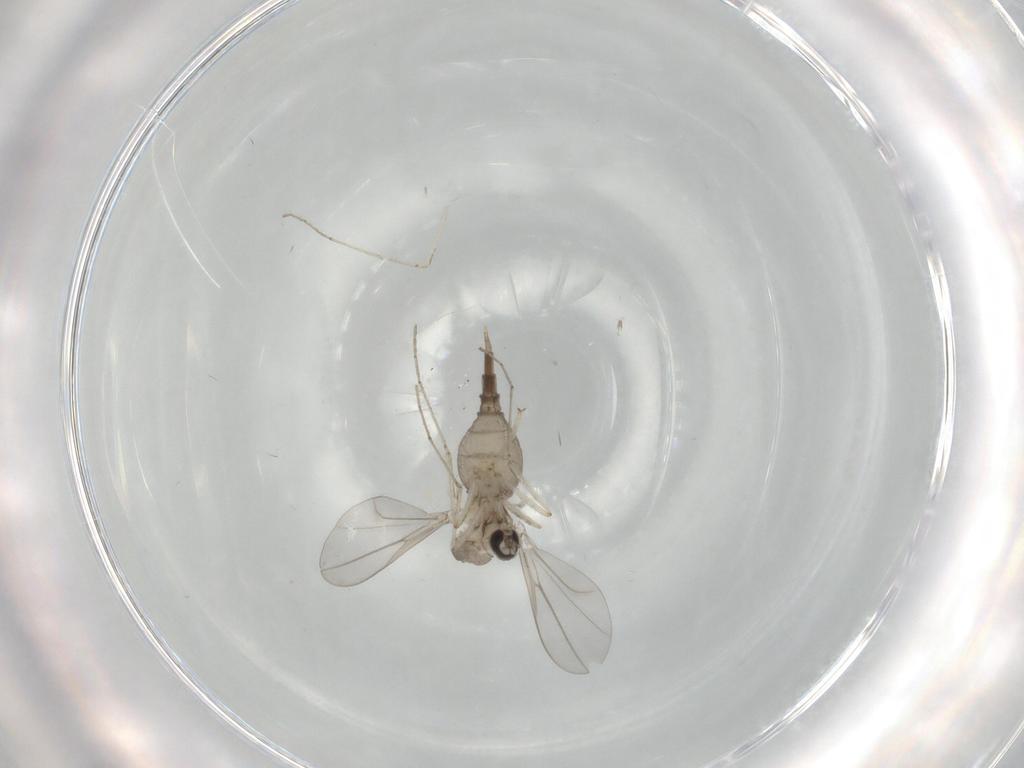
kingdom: Animalia
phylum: Arthropoda
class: Insecta
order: Diptera
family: Cecidomyiidae
